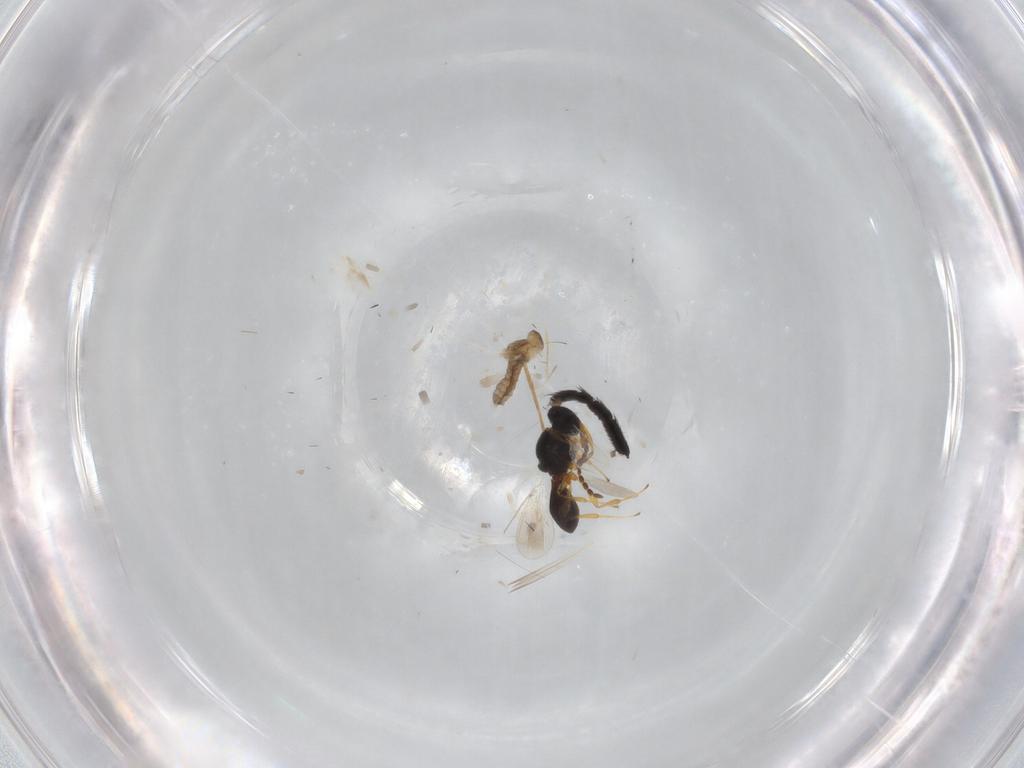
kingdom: Animalia
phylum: Arthropoda
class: Insecta
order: Diptera
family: Cecidomyiidae
